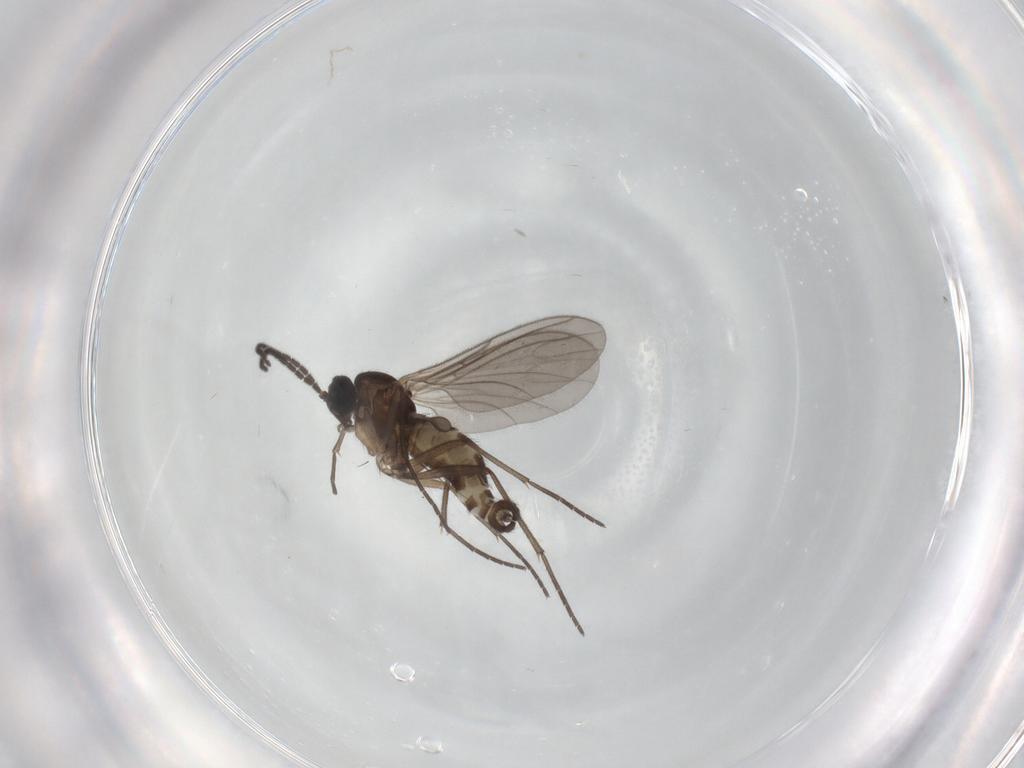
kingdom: Animalia
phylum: Arthropoda
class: Insecta
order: Diptera
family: Sciaridae
